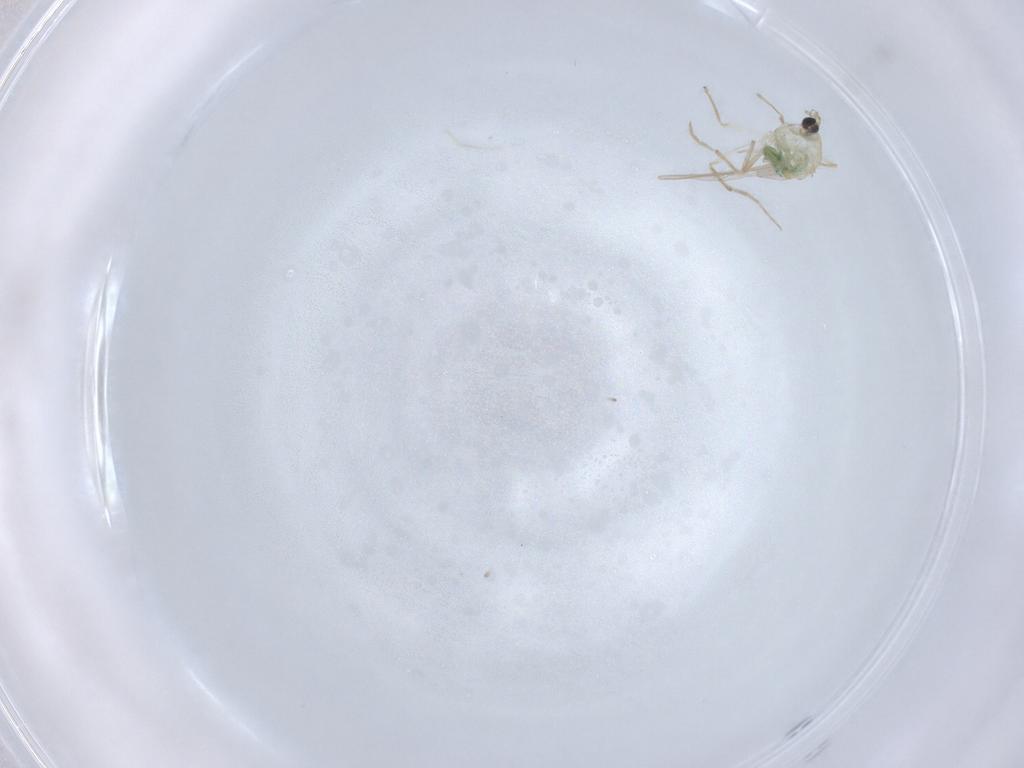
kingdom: Animalia
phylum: Arthropoda
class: Insecta
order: Diptera
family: Chironomidae
